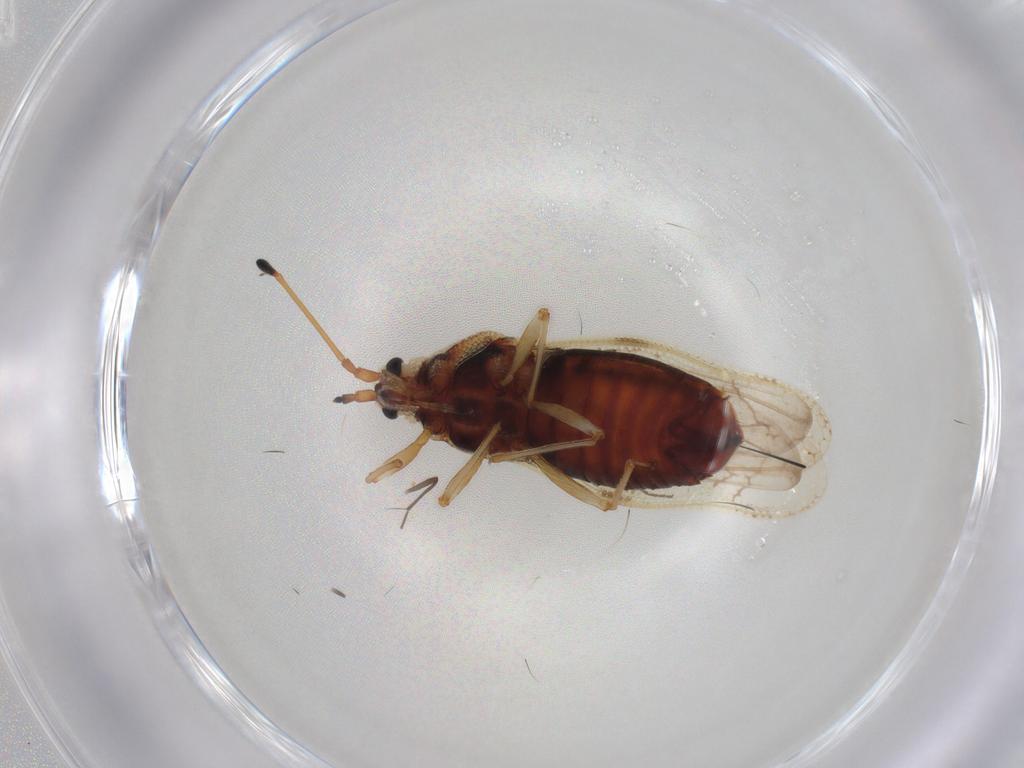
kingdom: Animalia
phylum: Arthropoda
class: Insecta
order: Hemiptera
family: Tingidae
